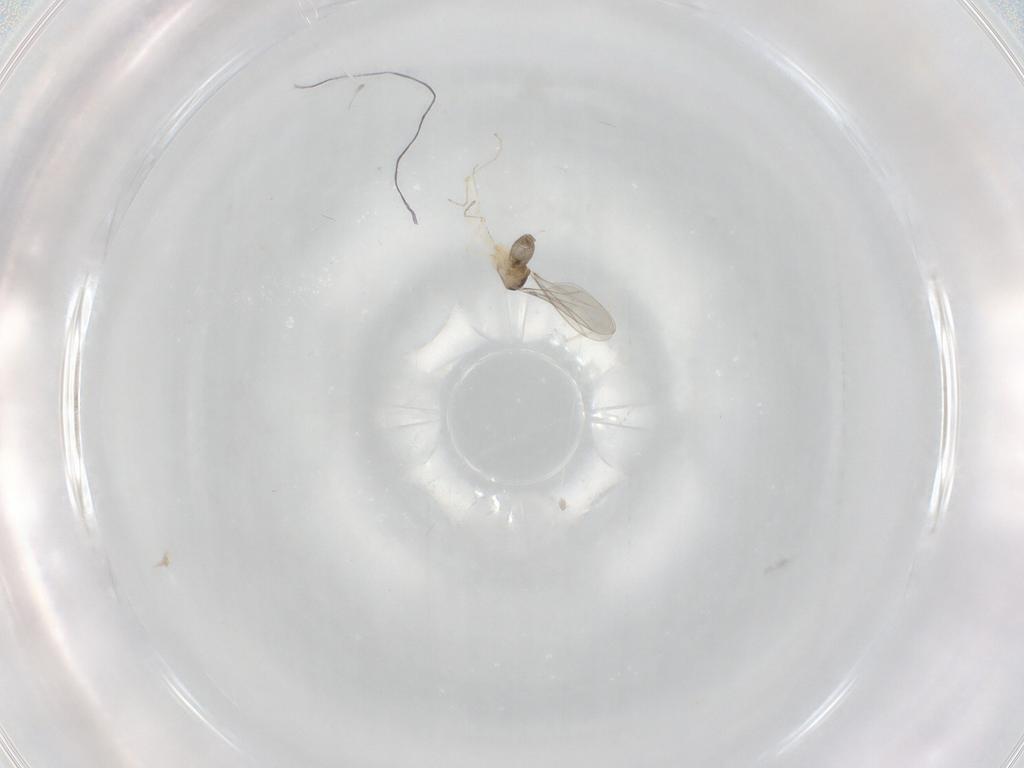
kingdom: Animalia
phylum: Arthropoda
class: Insecta
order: Diptera
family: Cecidomyiidae
